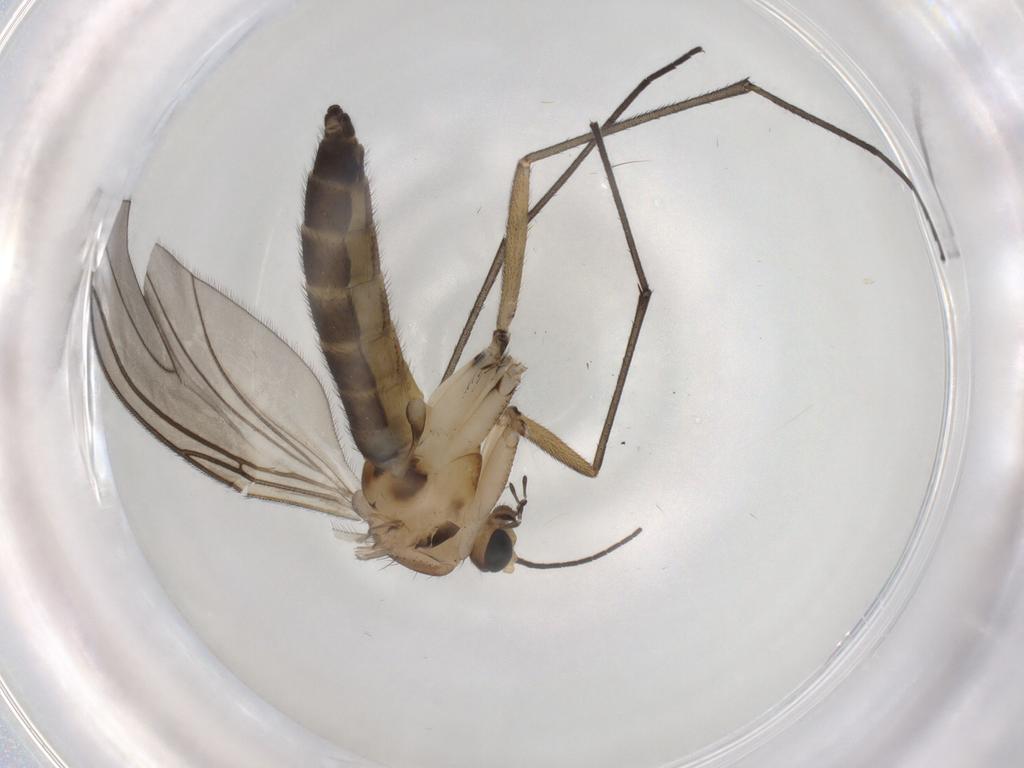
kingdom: Animalia
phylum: Arthropoda
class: Insecta
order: Diptera
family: Sciaridae
